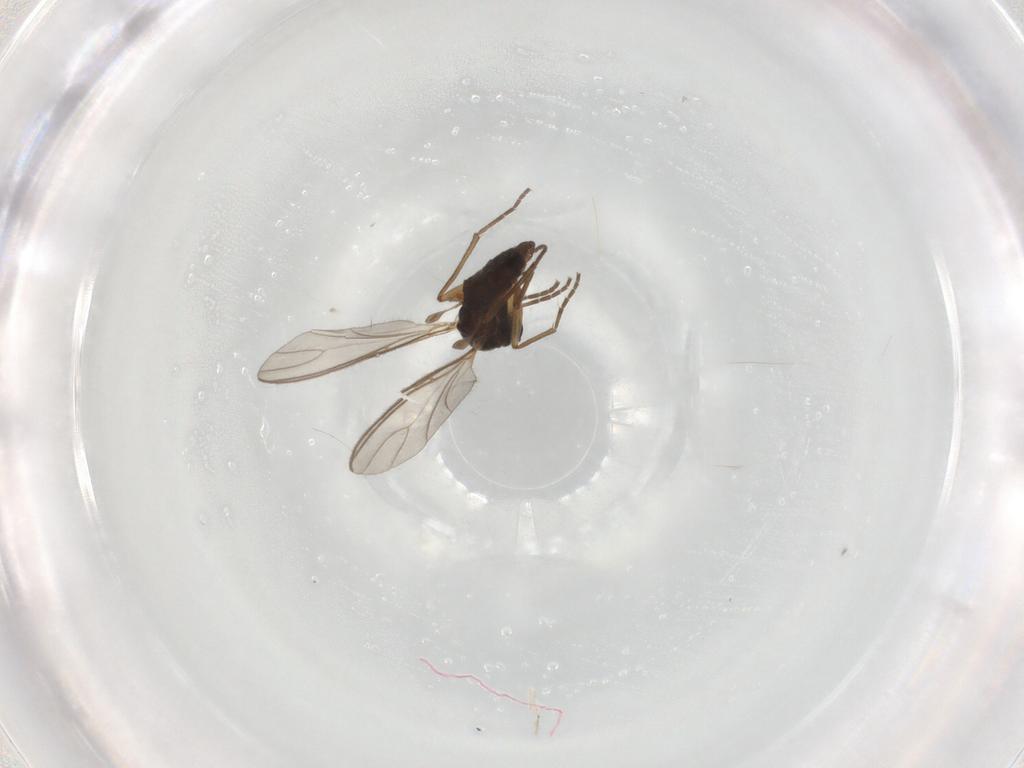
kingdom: Animalia
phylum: Arthropoda
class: Insecta
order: Diptera
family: Sciaridae
